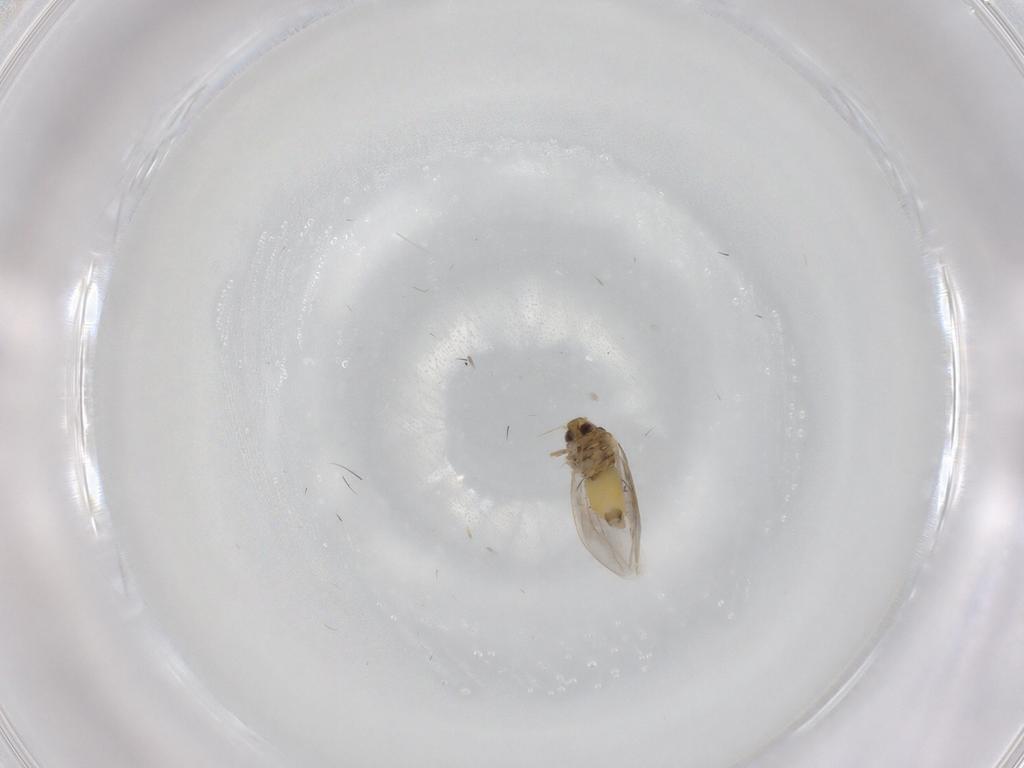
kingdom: Animalia
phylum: Arthropoda
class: Insecta
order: Hemiptera
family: Aleyrodidae
